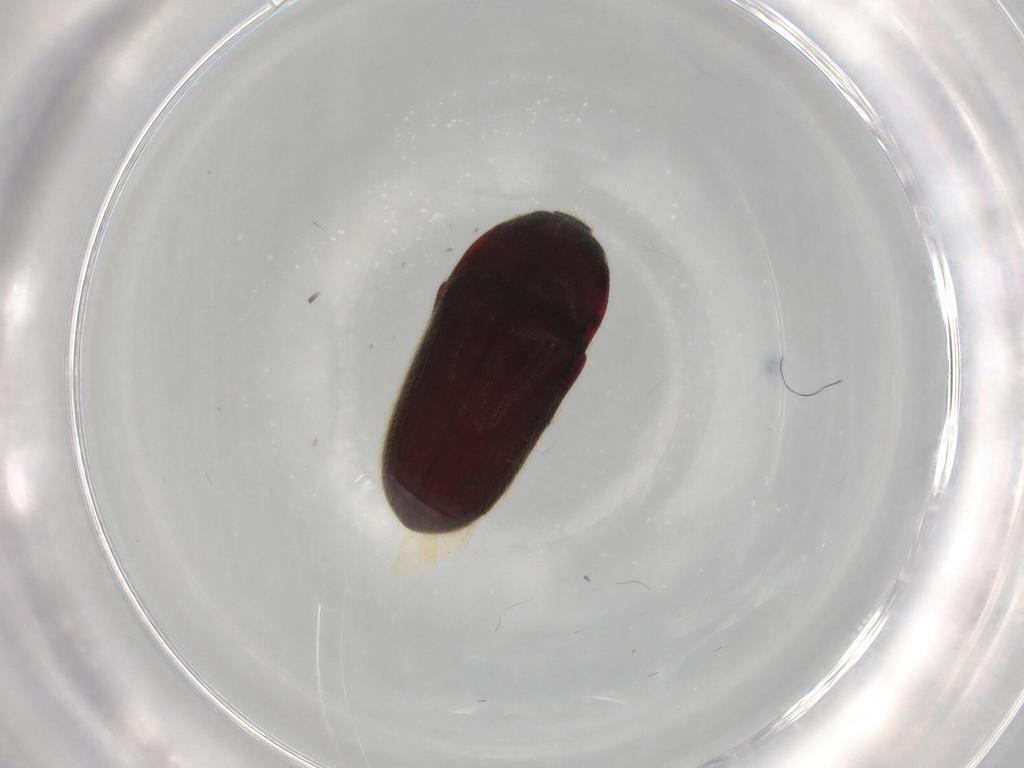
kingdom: Animalia
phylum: Arthropoda
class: Insecta
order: Coleoptera
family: Throscidae
